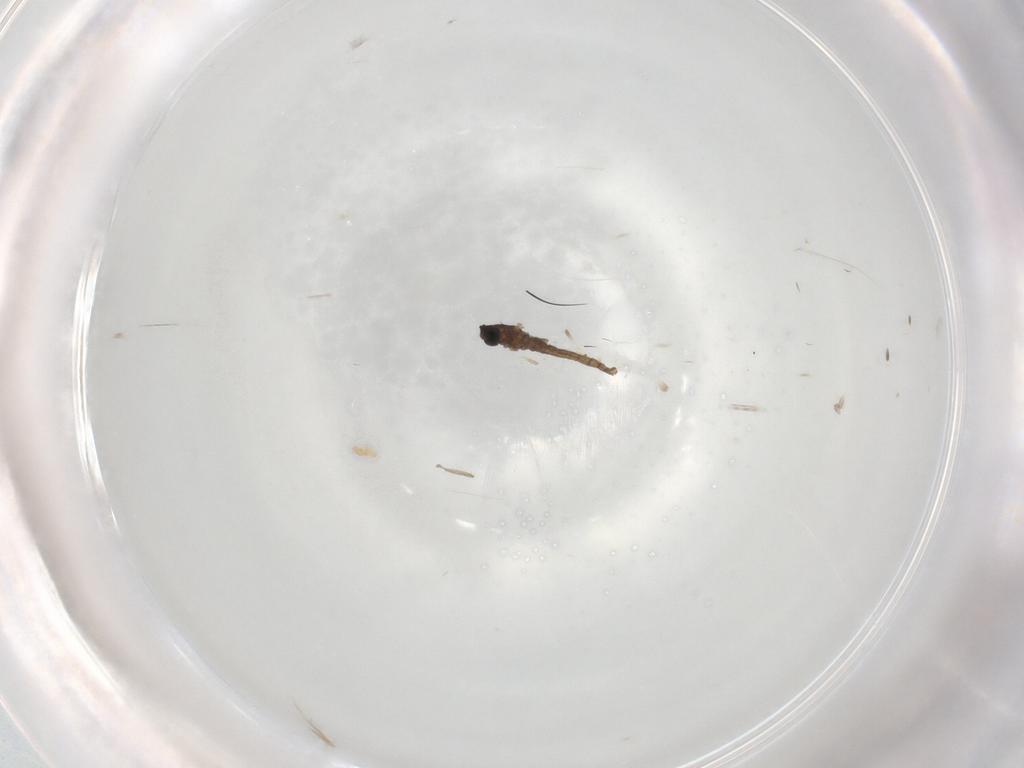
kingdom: Animalia
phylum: Arthropoda
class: Insecta
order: Diptera
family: Cecidomyiidae
